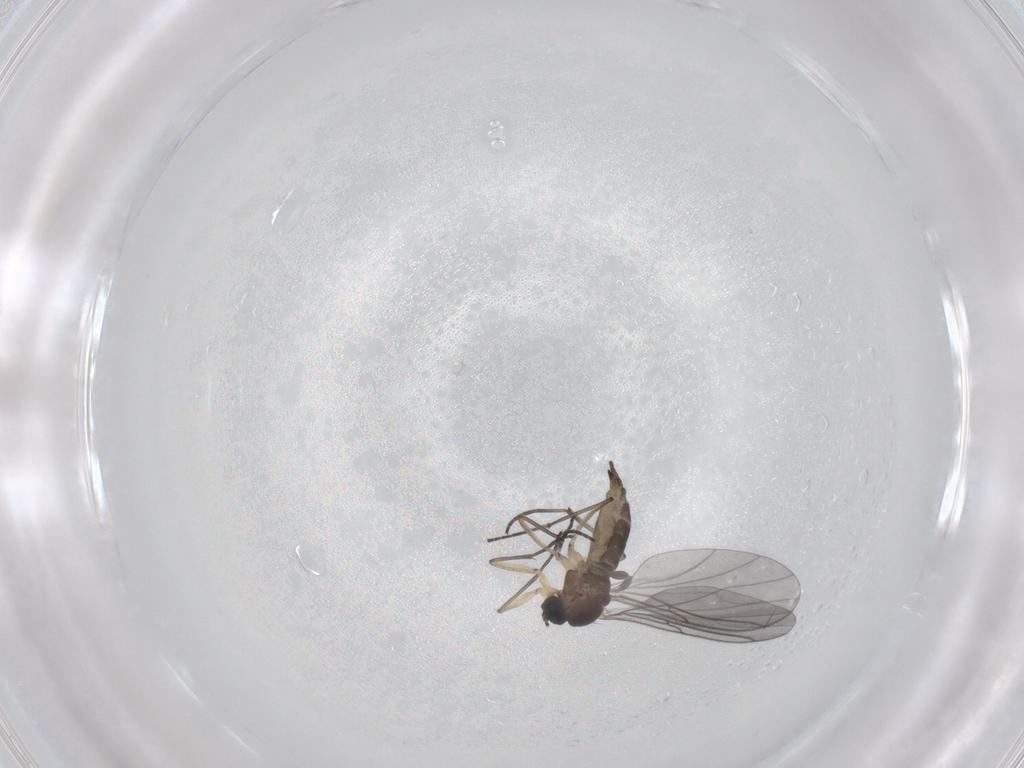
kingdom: Animalia
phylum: Arthropoda
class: Insecta
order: Diptera
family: Sciaridae
